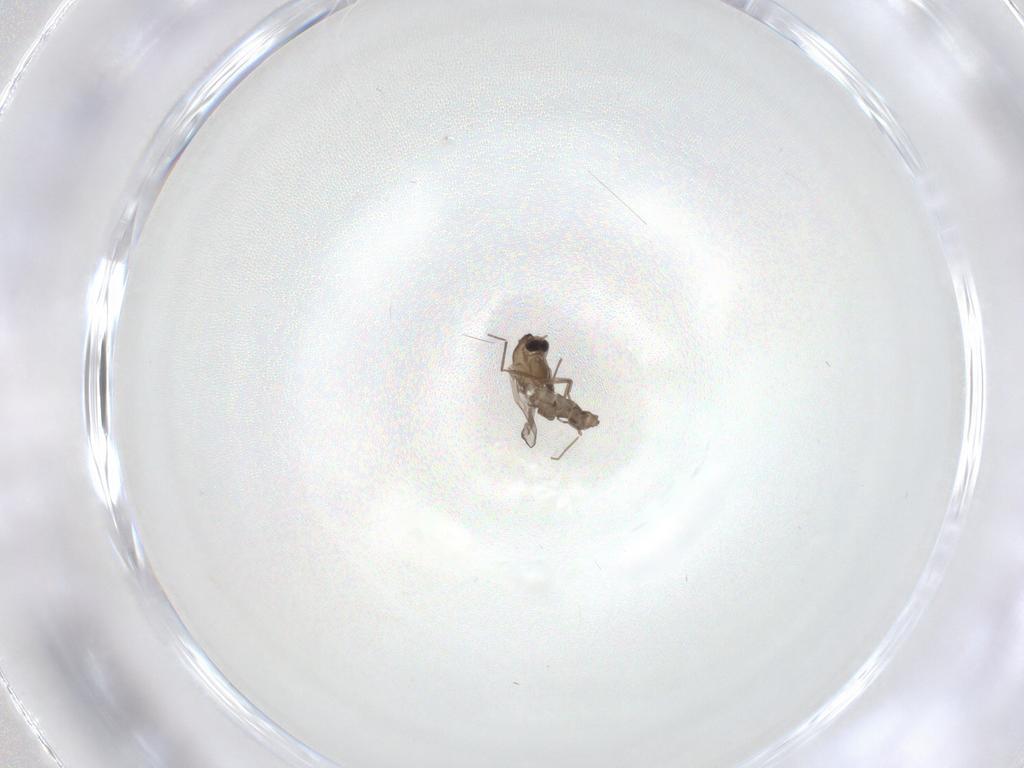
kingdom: Animalia
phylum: Arthropoda
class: Insecta
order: Diptera
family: Chironomidae
